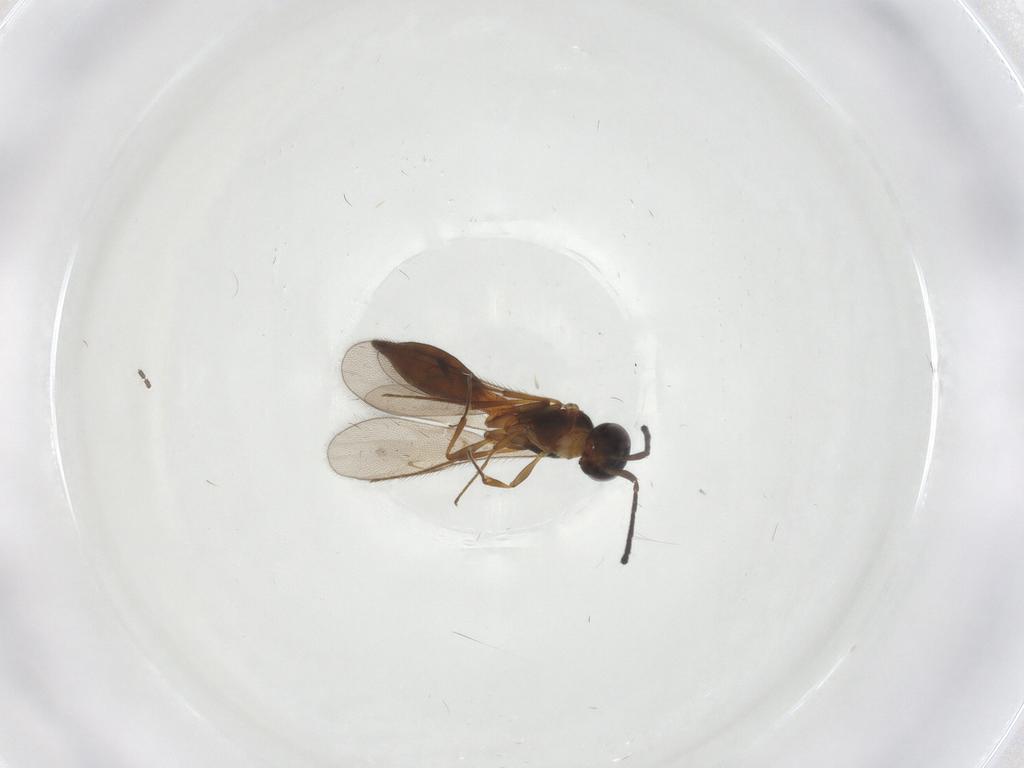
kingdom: Animalia
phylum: Arthropoda
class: Insecta
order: Hymenoptera
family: Scelionidae
